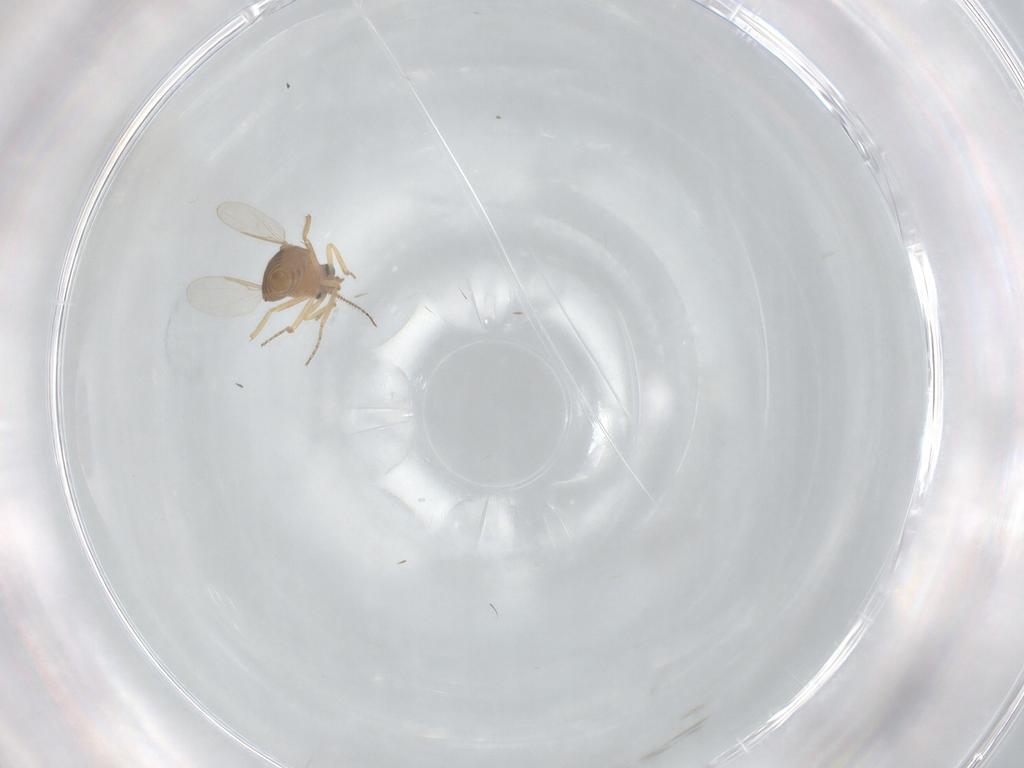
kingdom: Animalia
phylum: Arthropoda
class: Insecta
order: Diptera
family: Ceratopogonidae
